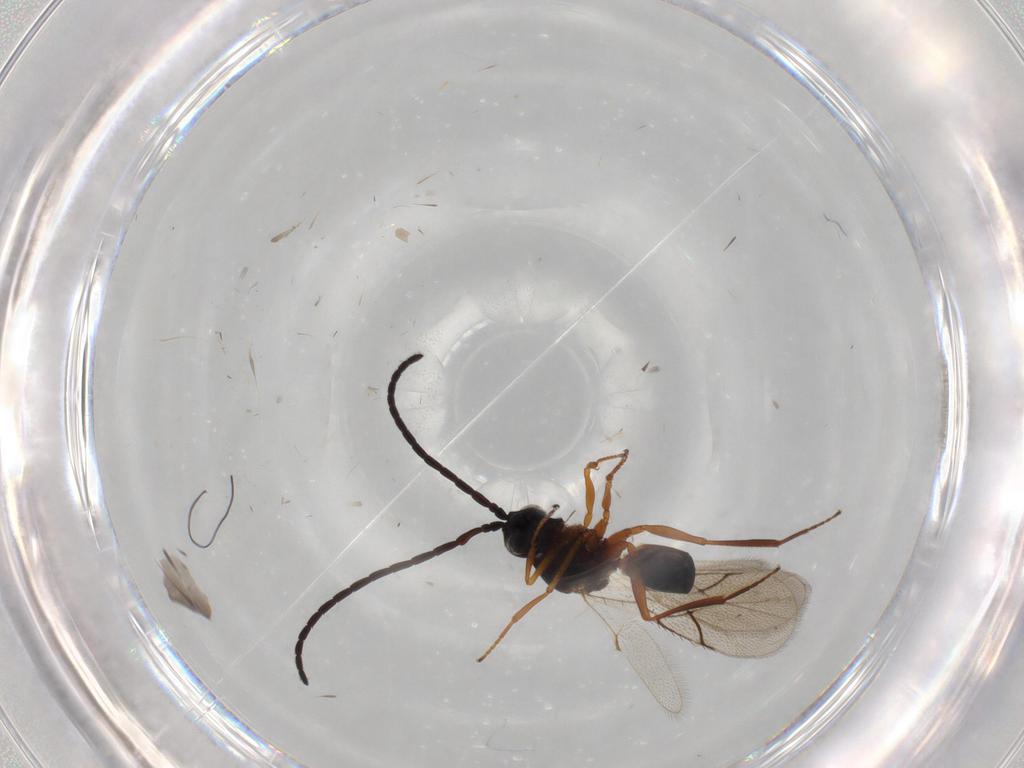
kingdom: Animalia
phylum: Arthropoda
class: Insecta
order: Hymenoptera
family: Figitidae
